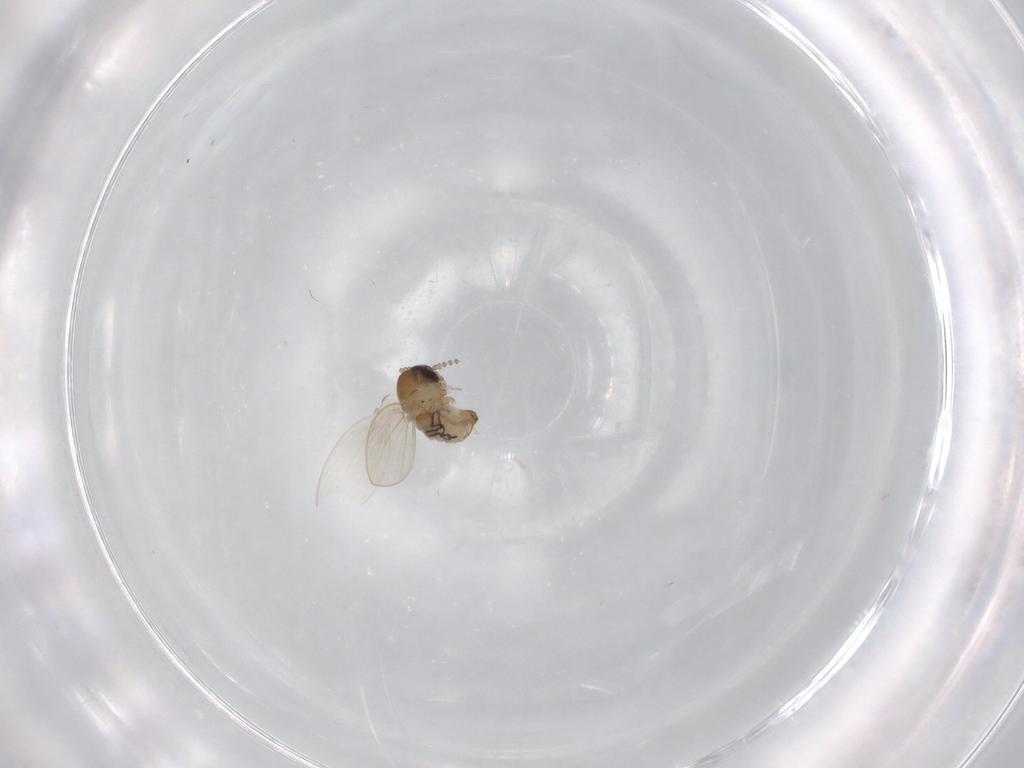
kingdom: Animalia
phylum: Arthropoda
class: Insecta
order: Diptera
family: Psychodidae
